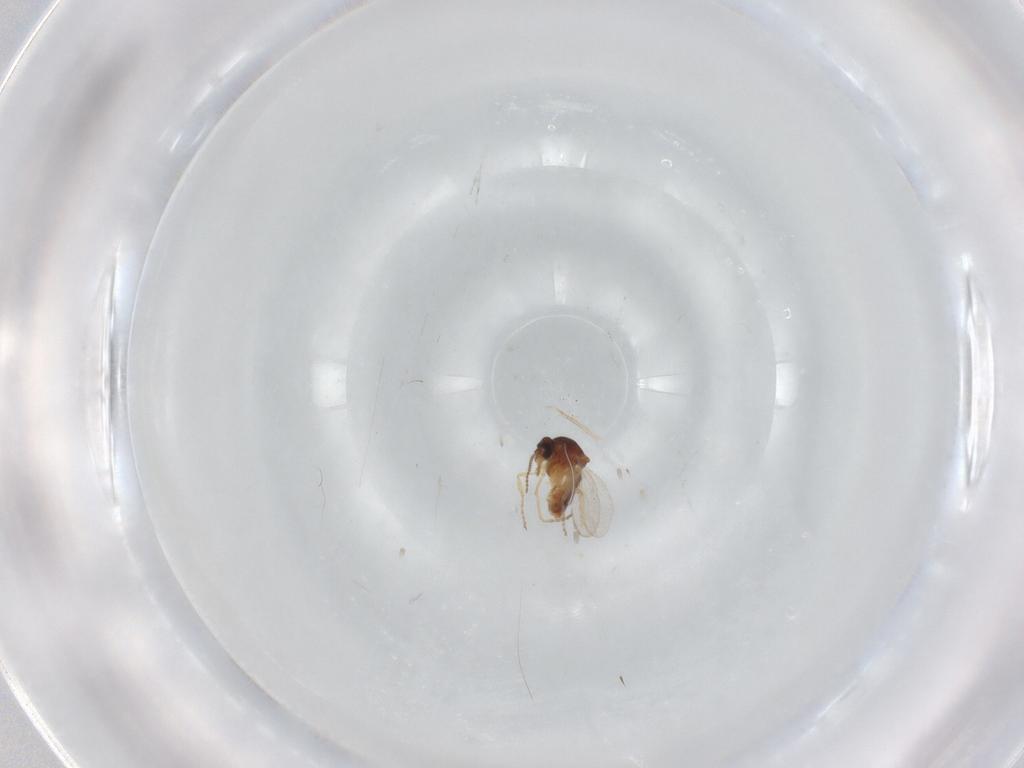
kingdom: Animalia
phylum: Arthropoda
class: Insecta
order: Diptera
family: Ceratopogonidae
